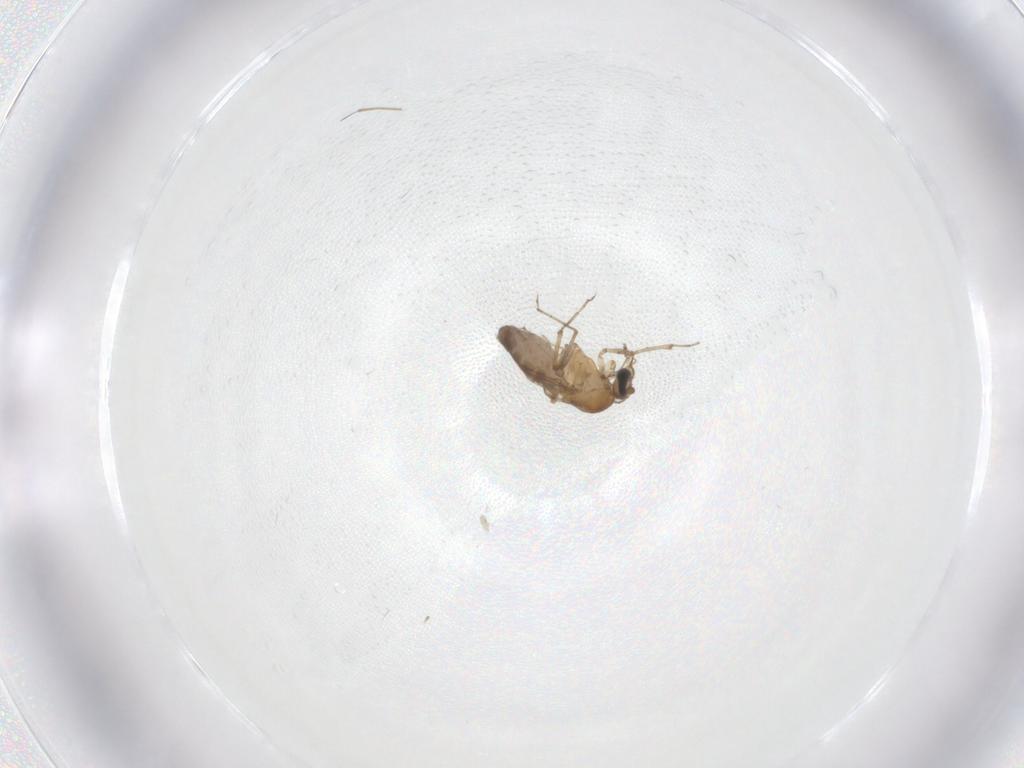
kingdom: Animalia
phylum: Arthropoda
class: Insecta
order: Diptera
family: Ceratopogonidae
